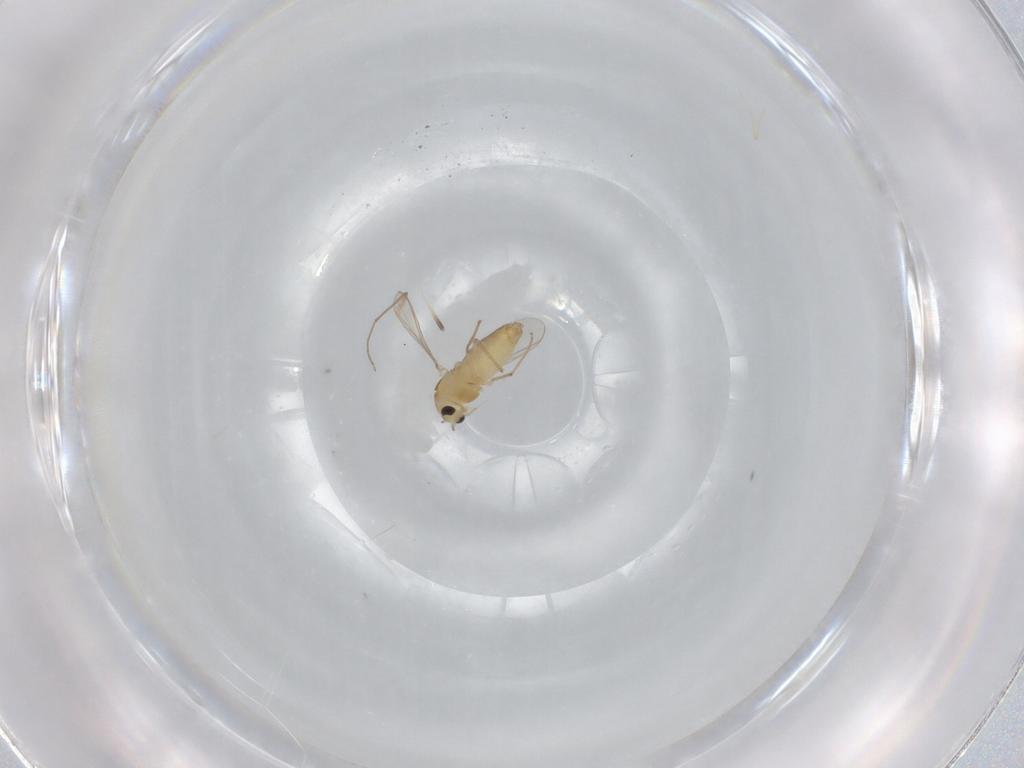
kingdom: Animalia
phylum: Arthropoda
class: Insecta
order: Diptera
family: Chironomidae
